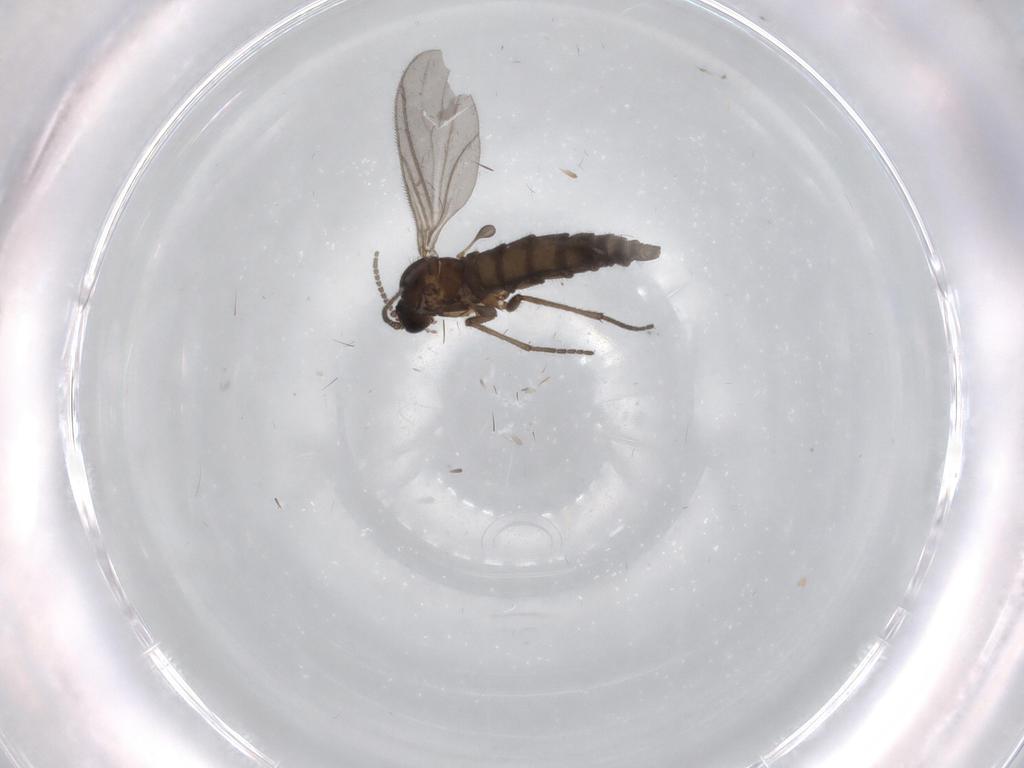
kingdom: Animalia
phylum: Arthropoda
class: Insecta
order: Diptera
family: Sciaridae
